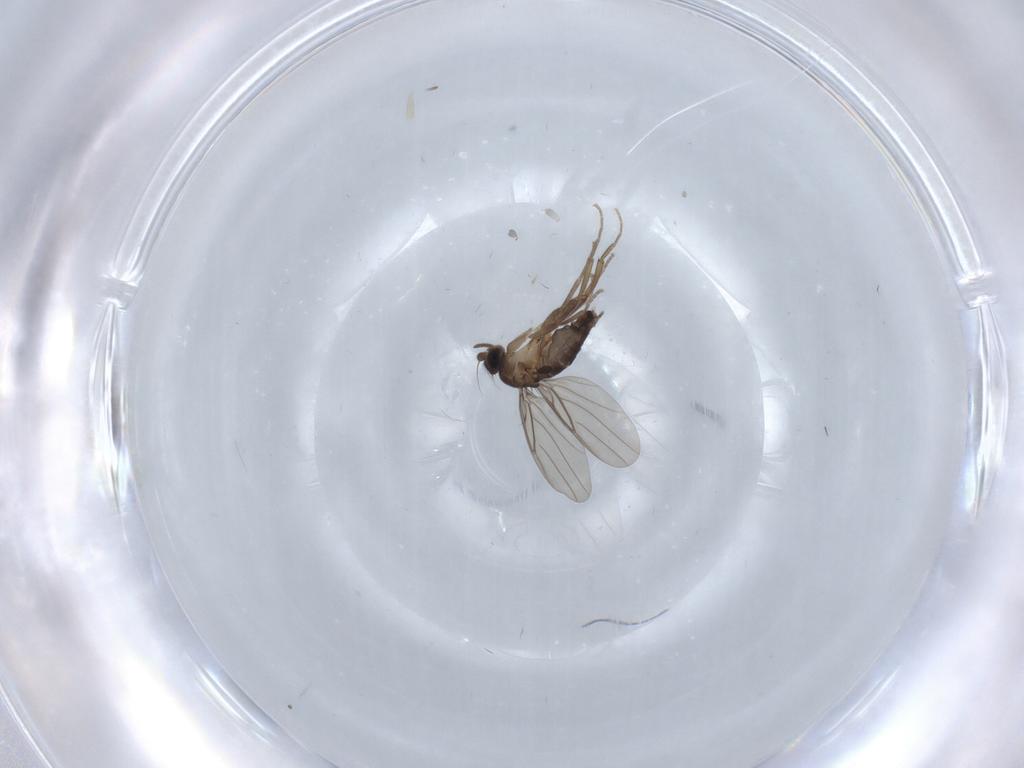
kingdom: Animalia
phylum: Arthropoda
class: Insecta
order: Diptera
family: Phoridae
